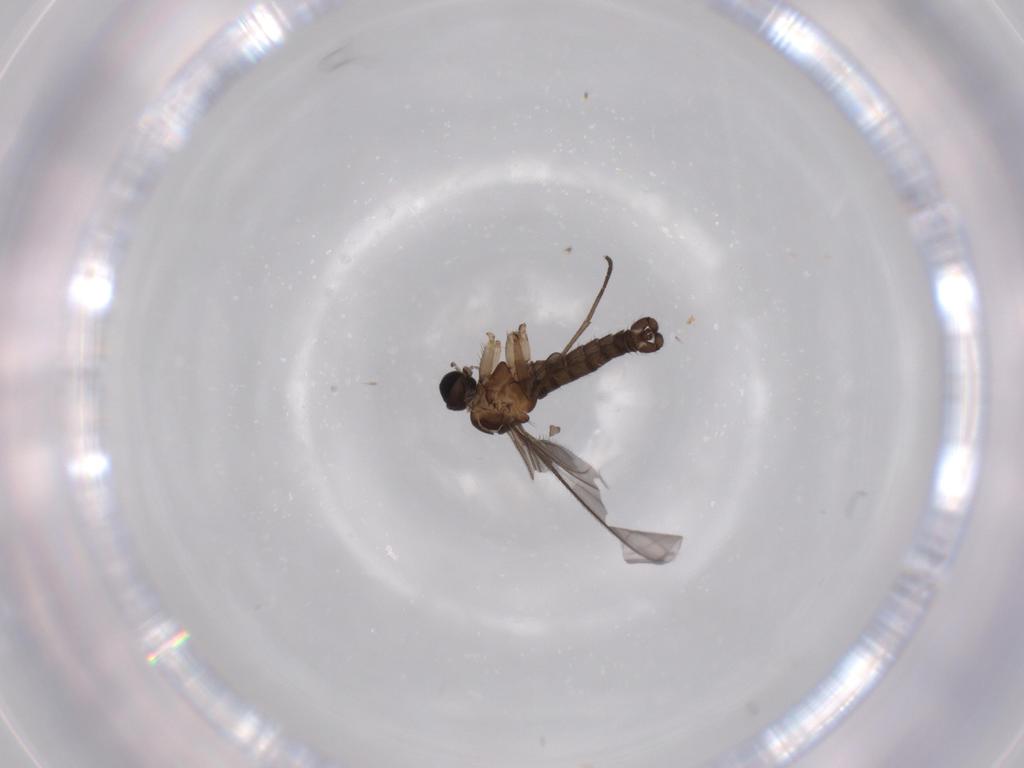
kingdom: Animalia
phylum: Arthropoda
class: Insecta
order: Diptera
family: Sciaridae
